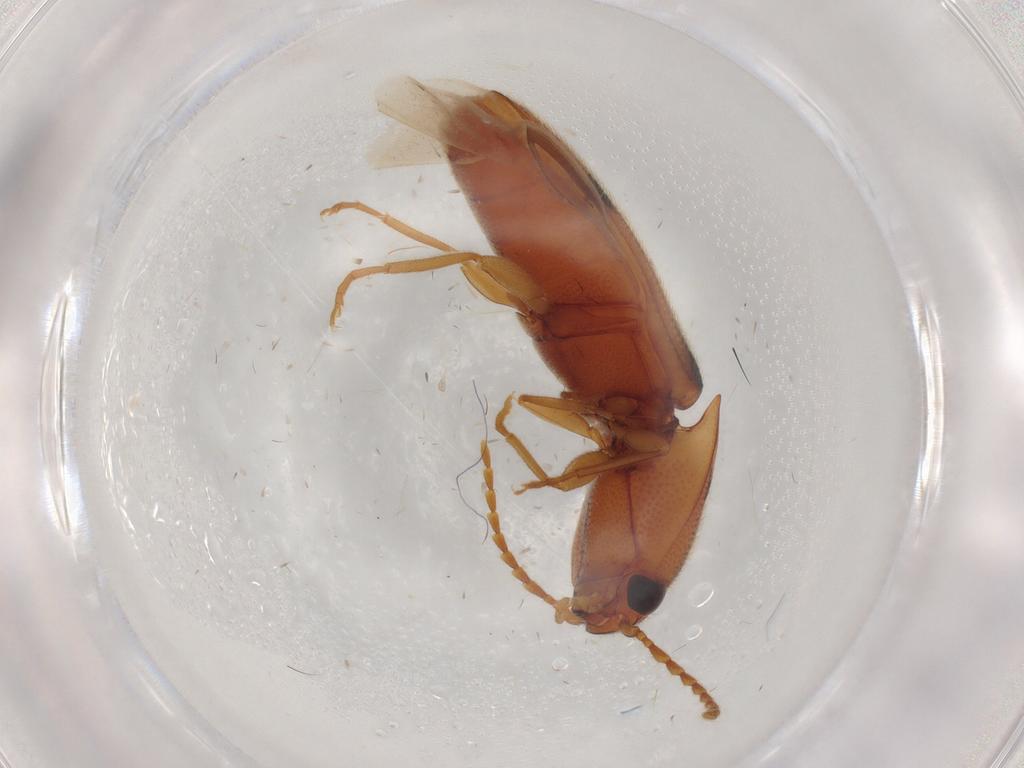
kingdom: Animalia
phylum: Arthropoda
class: Insecta
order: Coleoptera
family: Elateridae
